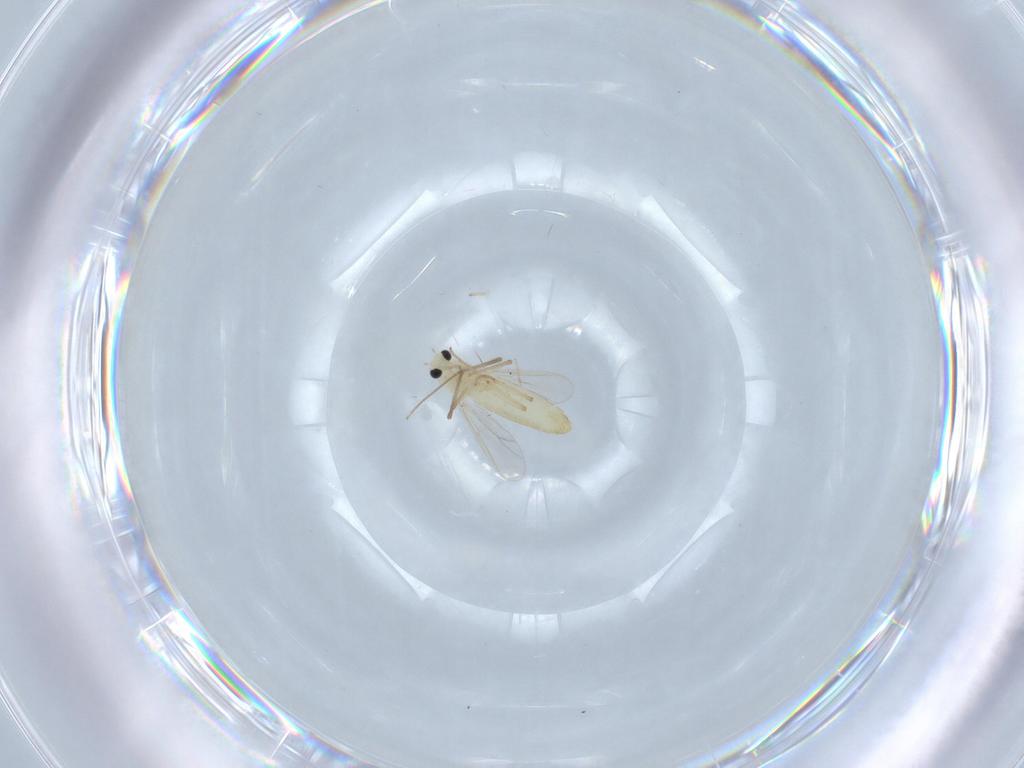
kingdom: Animalia
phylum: Arthropoda
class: Insecta
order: Diptera
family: Chironomidae
